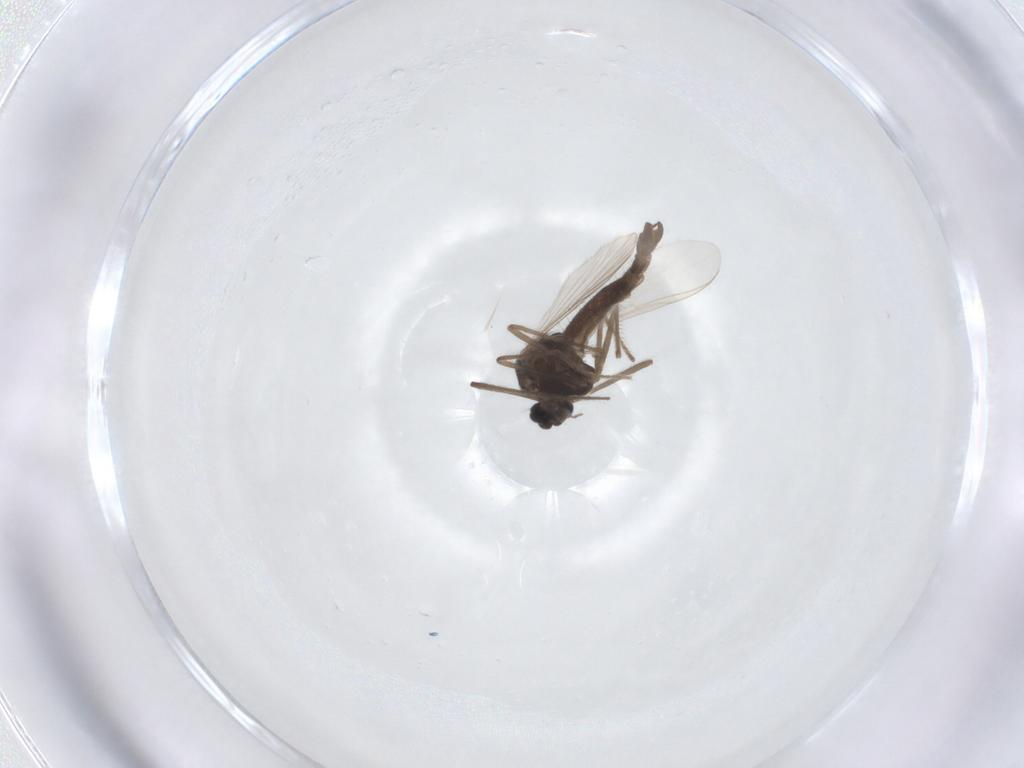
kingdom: Animalia
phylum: Arthropoda
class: Insecta
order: Diptera
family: Chironomidae
